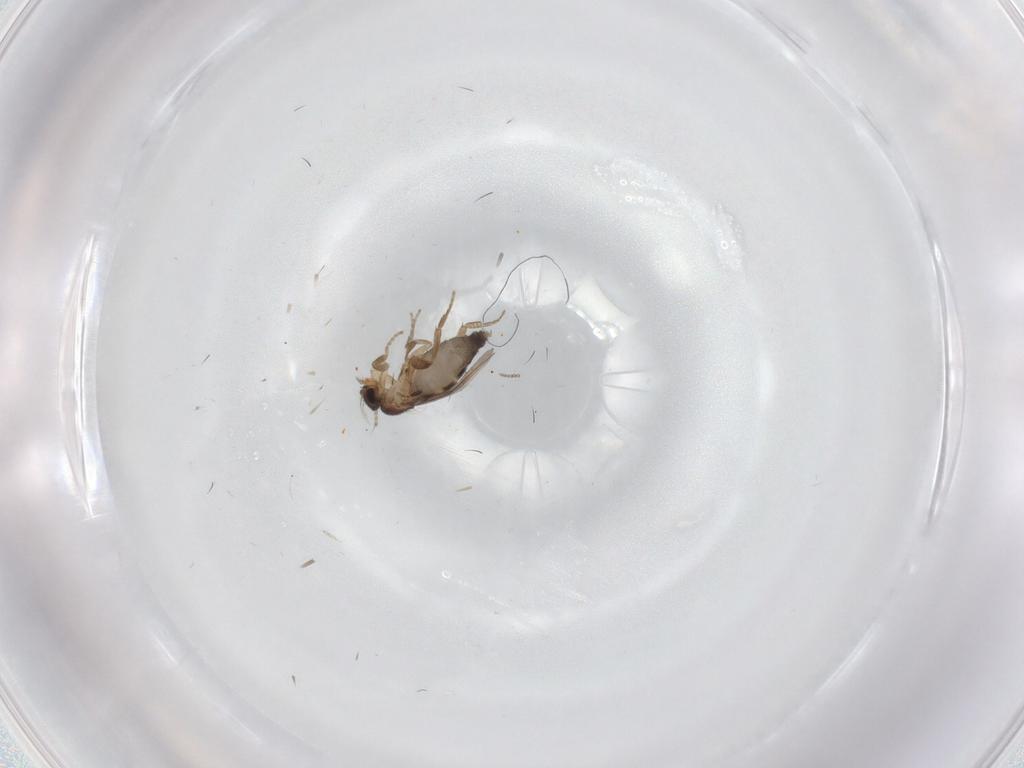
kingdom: Animalia
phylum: Arthropoda
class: Insecta
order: Diptera
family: Phoridae
